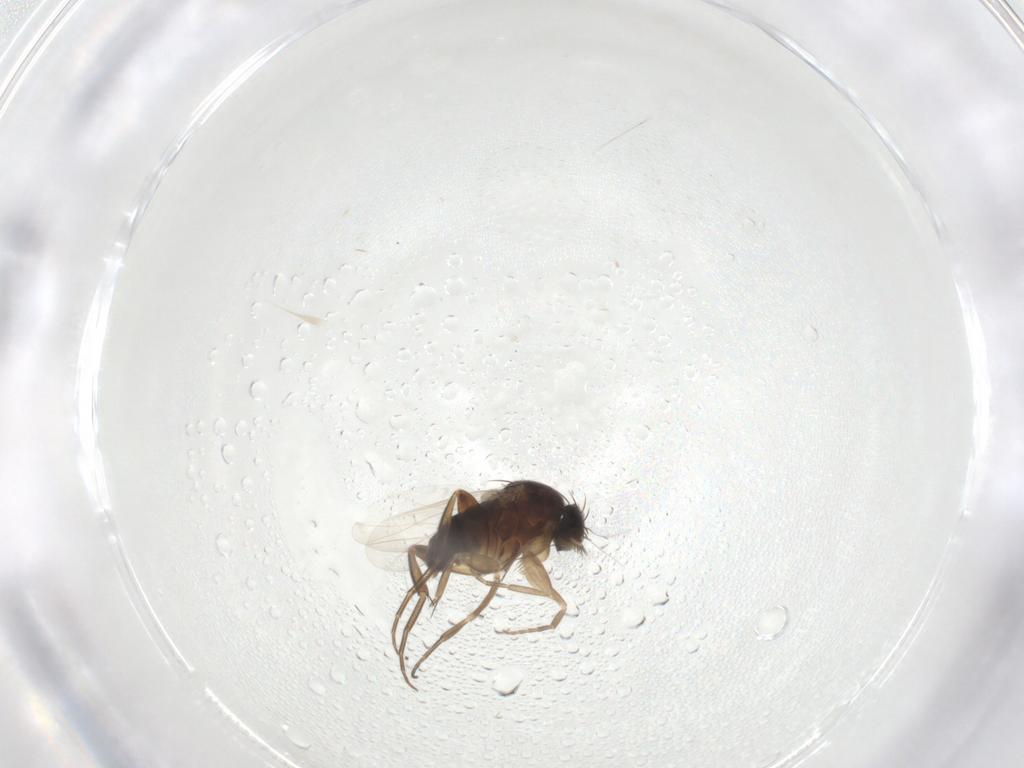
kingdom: Animalia
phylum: Arthropoda
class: Insecta
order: Diptera
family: Phoridae
